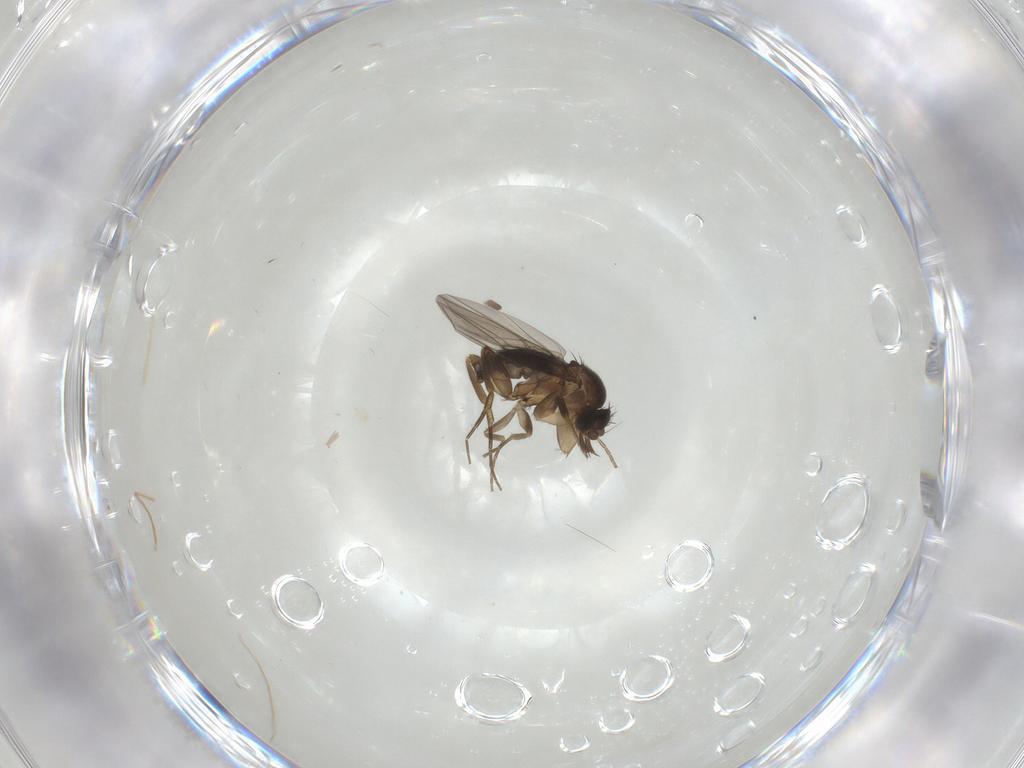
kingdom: Animalia
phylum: Arthropoda
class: Insecta
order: Diptera
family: Phoridae
